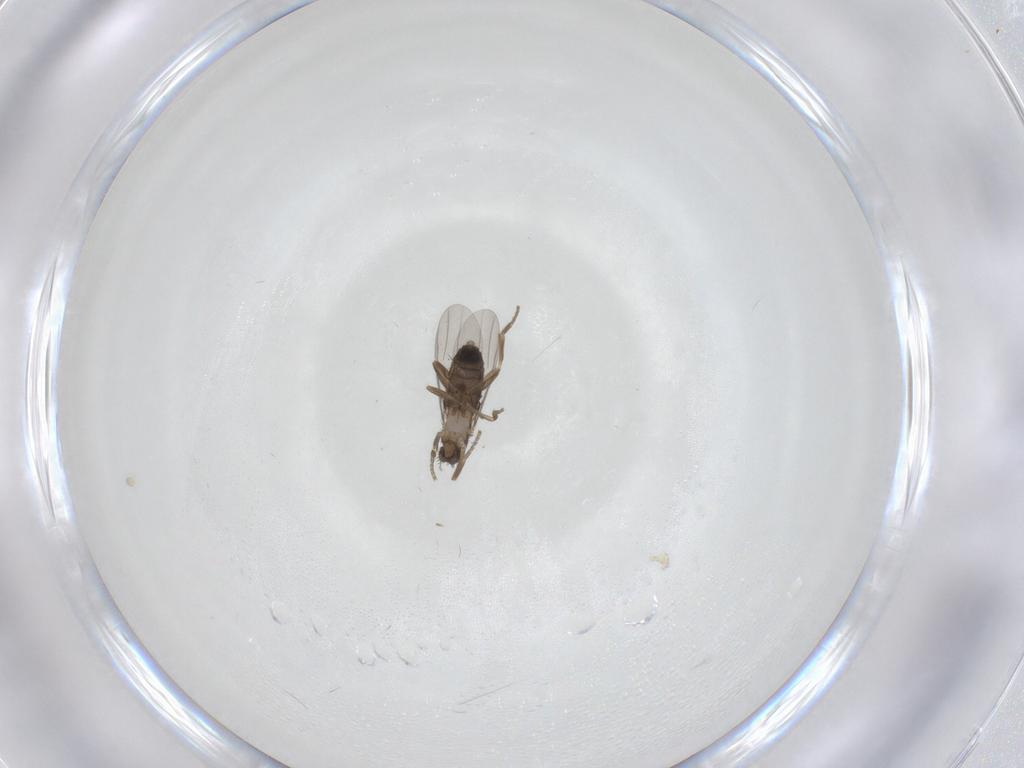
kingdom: Animalia
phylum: Arthropoda
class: Insecta
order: Diptera
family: Phoridae
